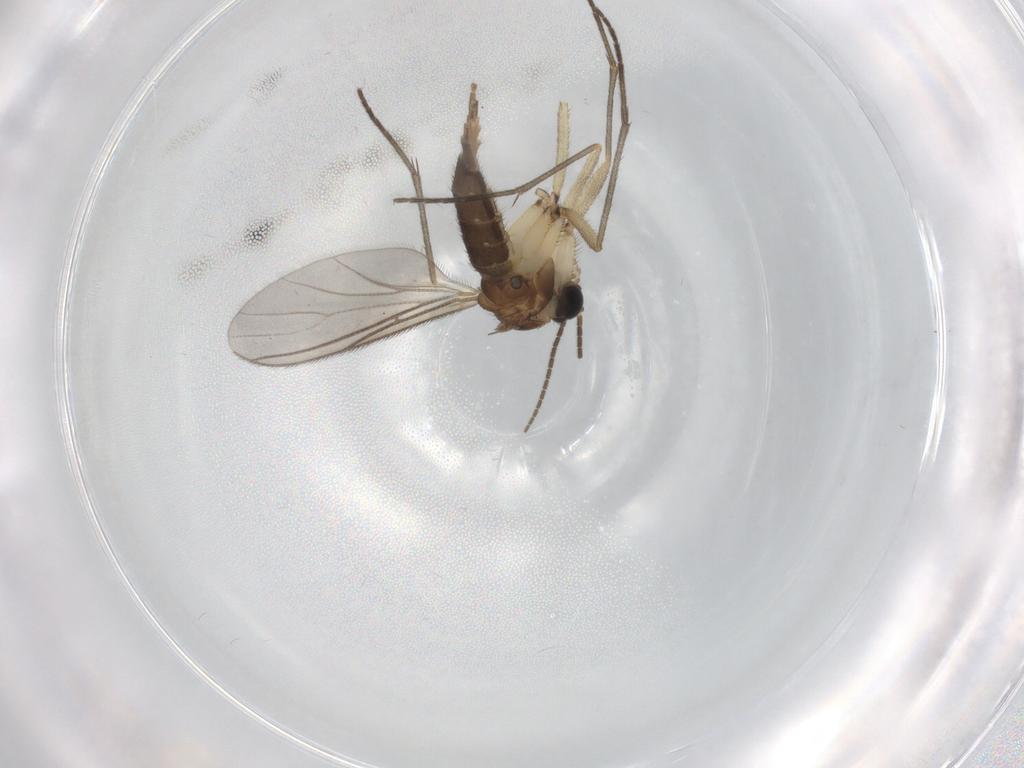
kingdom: Animalia
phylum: Arthropoda
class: Insecta
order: Diptera
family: Sciaridae
